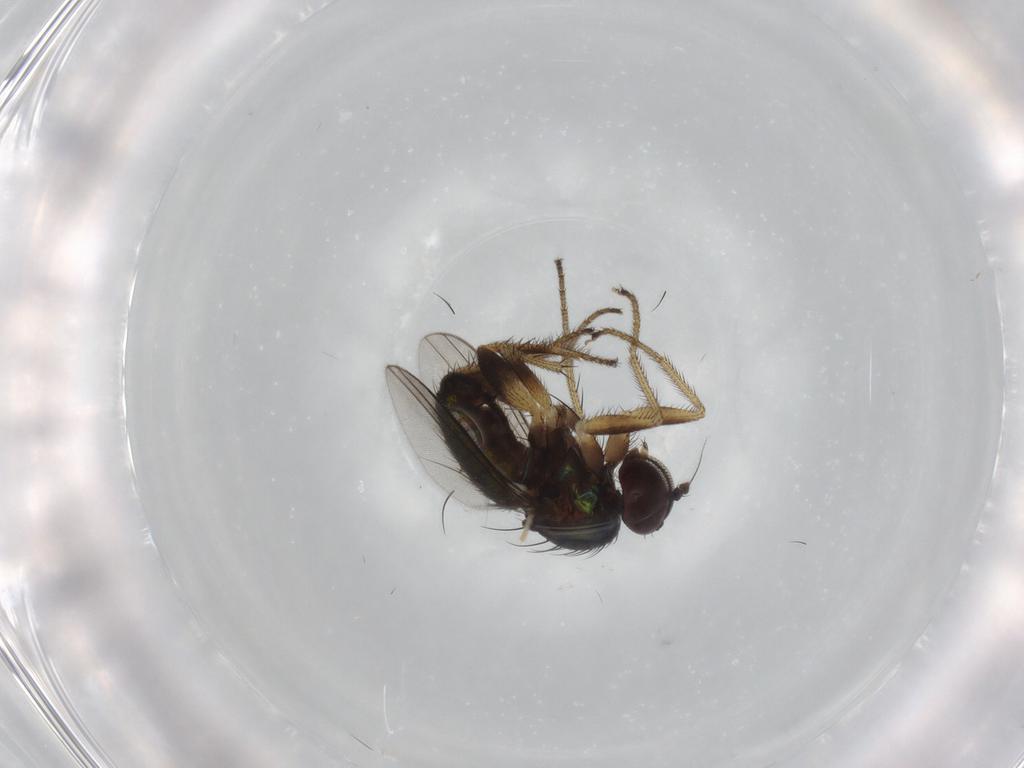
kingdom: Animalia
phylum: Arthropoda
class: Insecta
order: Diptera
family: Dolichopodidae
